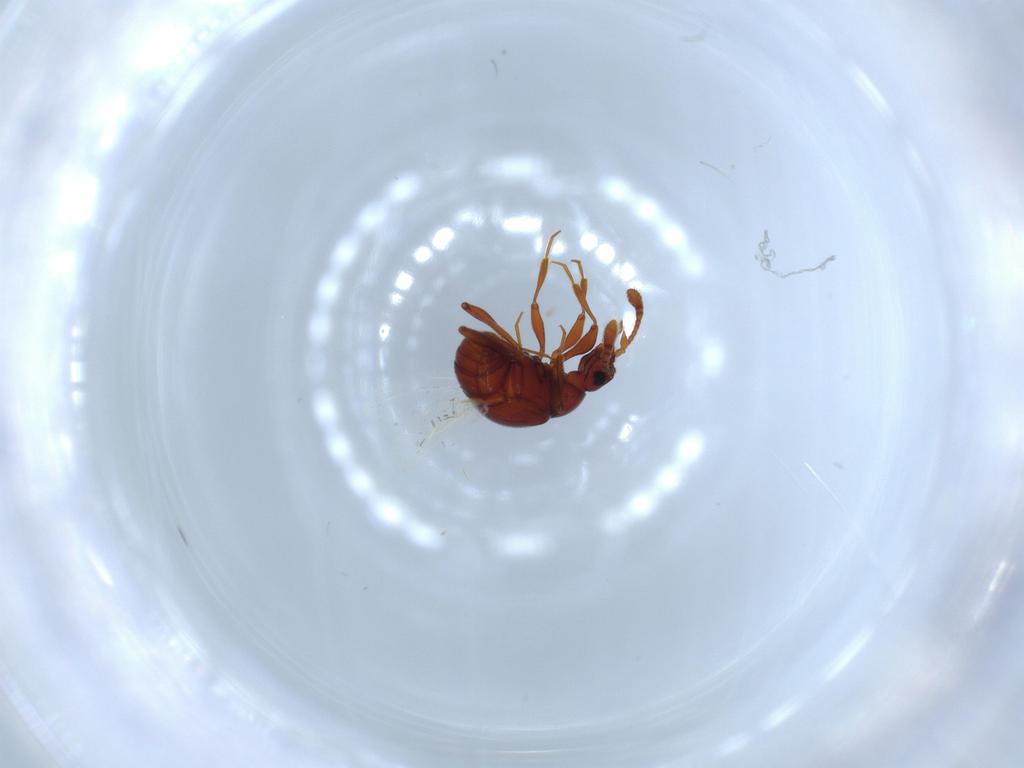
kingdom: Animalia
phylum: Arthropoda
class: Insecta
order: Coleoptera
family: Staphylinidae
